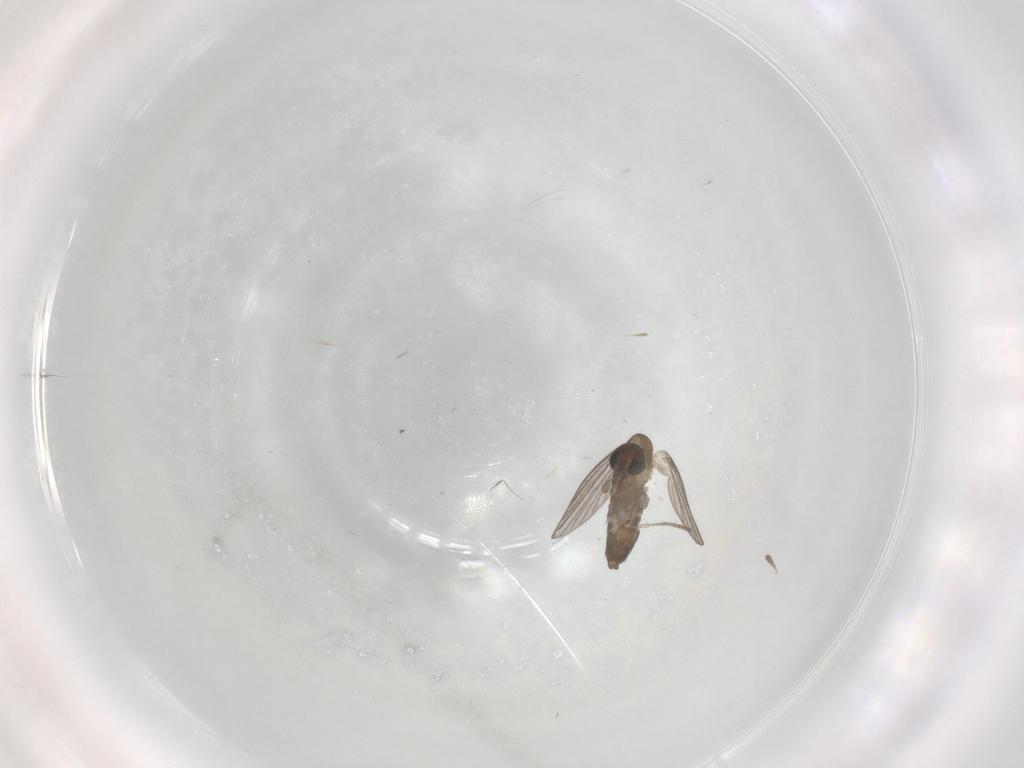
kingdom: Animalia
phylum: Arthropoda
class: Insecta
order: Diptera
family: Ceratopogonidae
